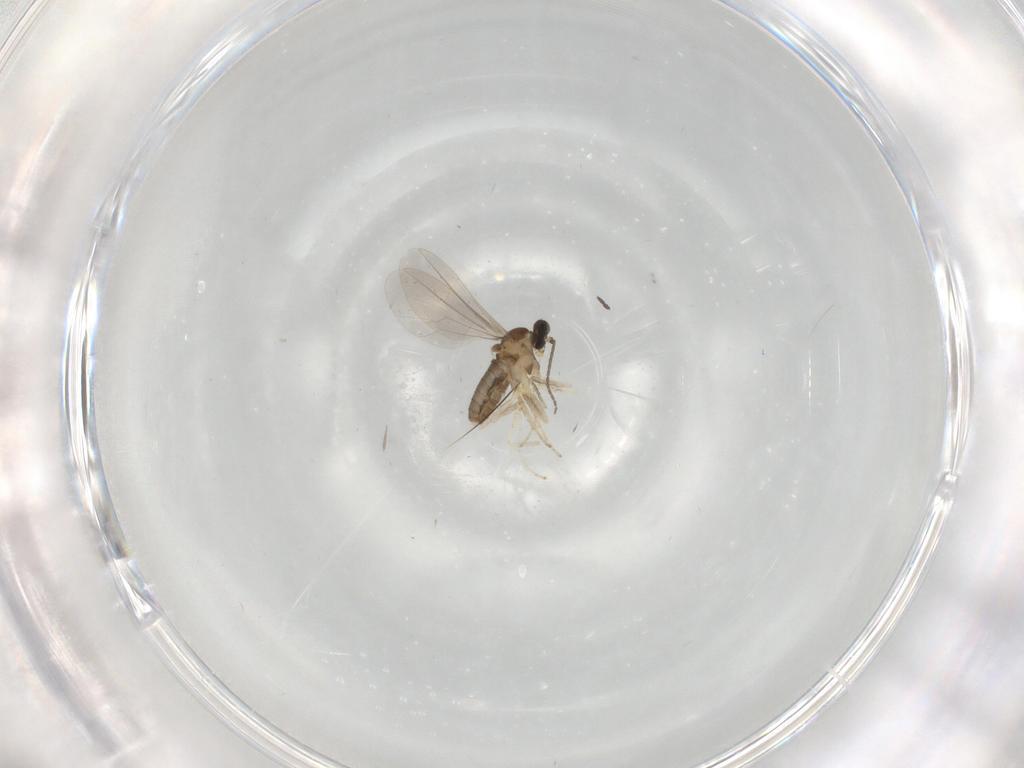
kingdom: Animalia
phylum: Arthropoda
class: Insecta
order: Diptera
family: Cecidomyiidae
